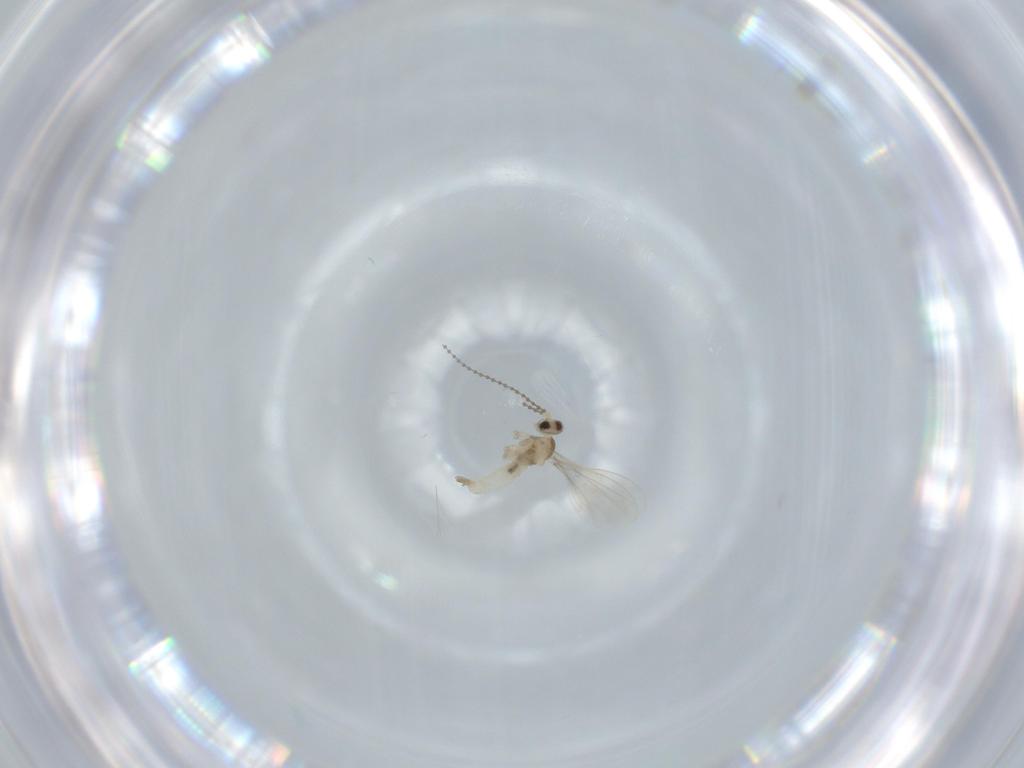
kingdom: Animalia
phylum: Arthropoda
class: Insecta
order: Diptera
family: Cecidomyiidae
